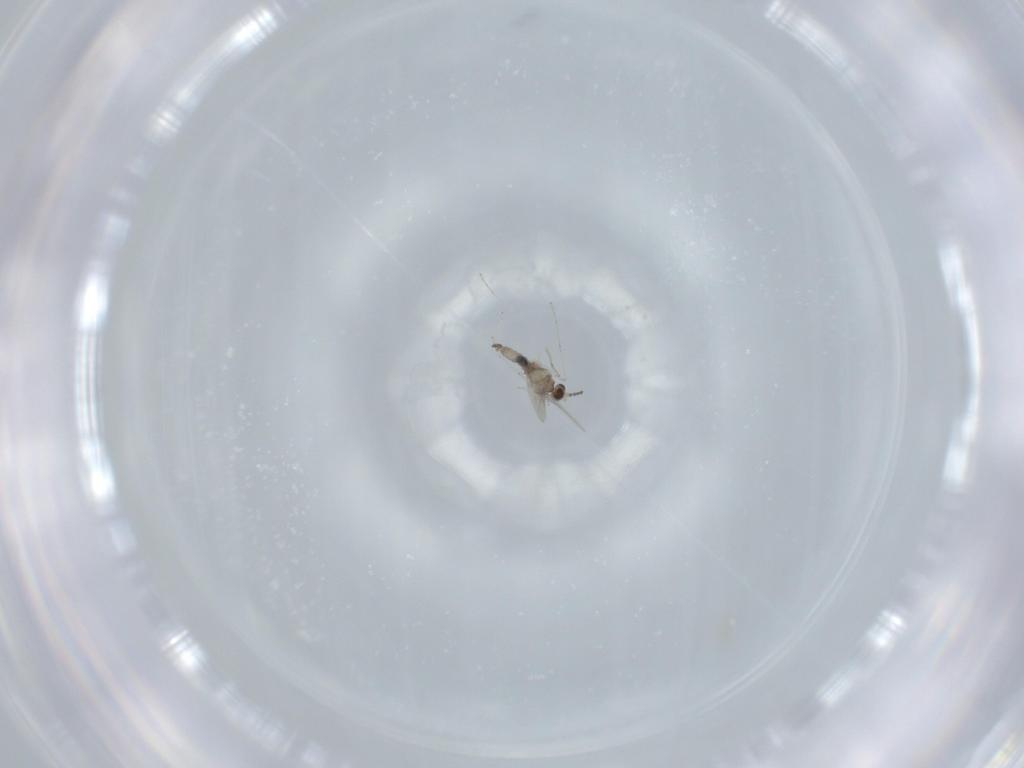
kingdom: Animalia
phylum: Arthropoda
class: Insecta
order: Diptera
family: Cecidomyiidae
